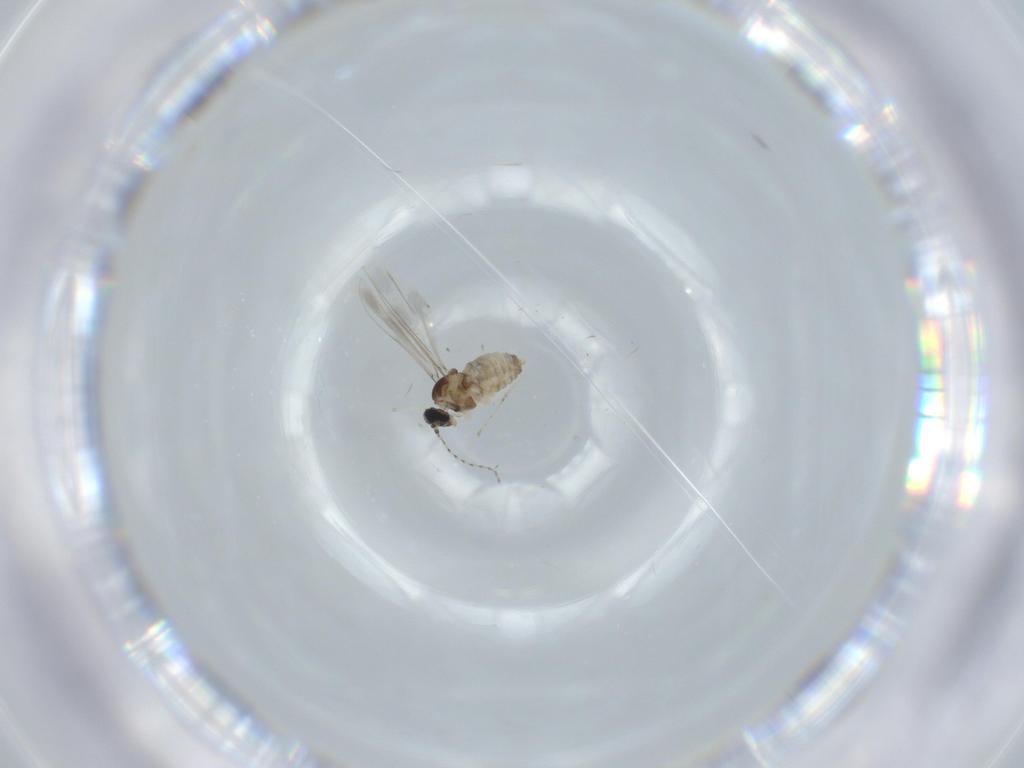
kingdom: Animalia
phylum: Arthropoda
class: Insecta
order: Diptera
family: Cecidomyiidae
